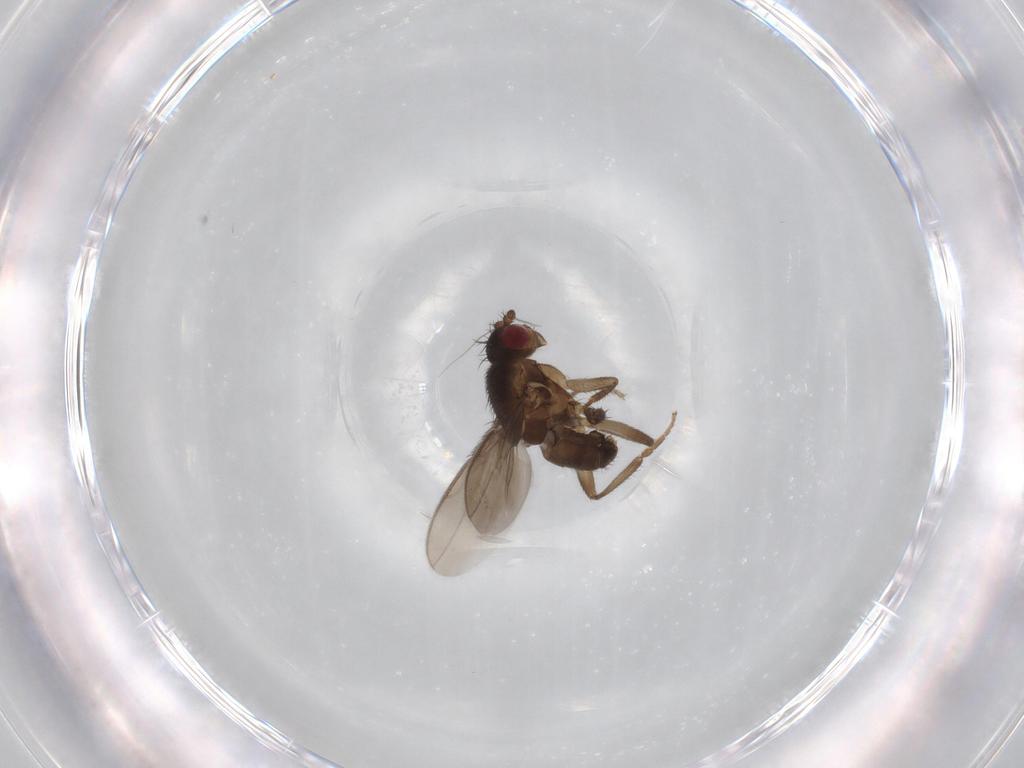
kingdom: Animalia
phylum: Arthropoda
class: Insecta
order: Diptera
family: Sphaeroceridae
